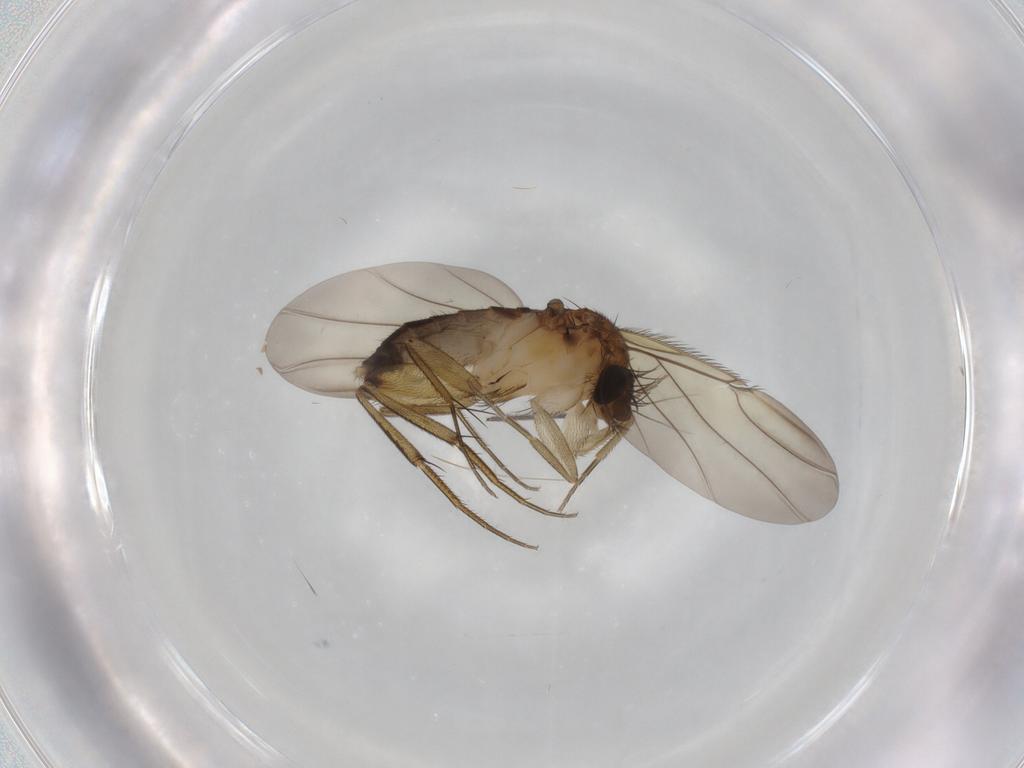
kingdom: Animalia
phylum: Arthropoda
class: Insecta
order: Diptera
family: Phoridae
